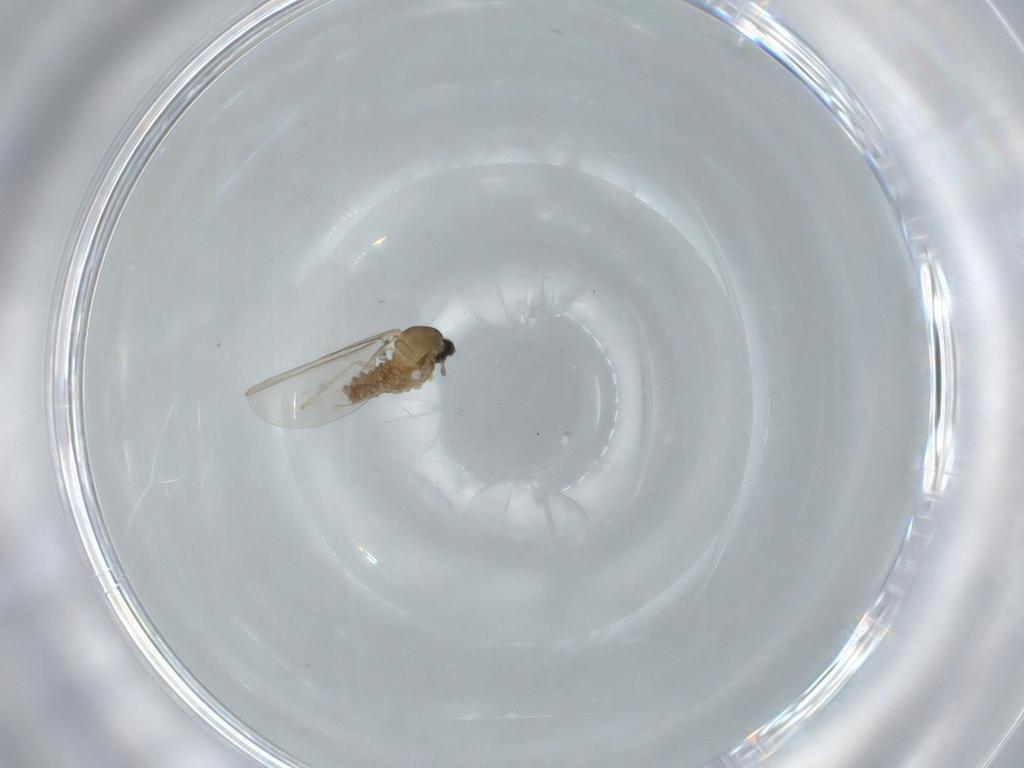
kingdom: Animalia
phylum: Arthropoda
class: Insecta
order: Diptera
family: Cecidomyiidae
